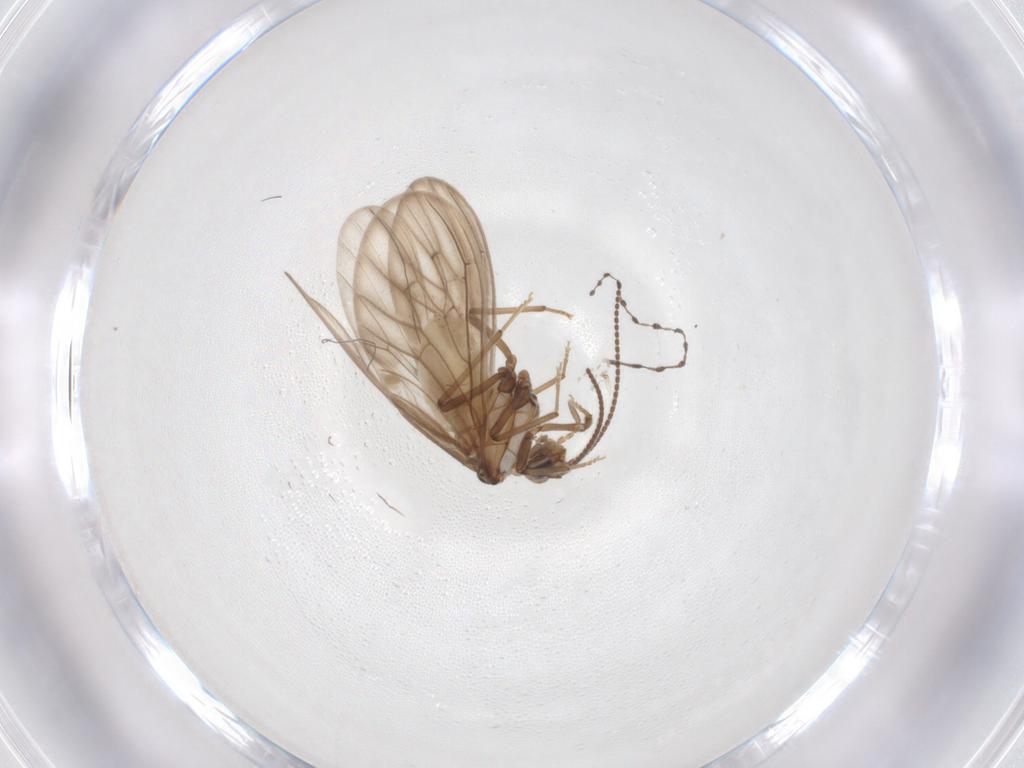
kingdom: Animalia
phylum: Arthropoda
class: Insecta
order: Neuroptera
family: Coniopterygidae
